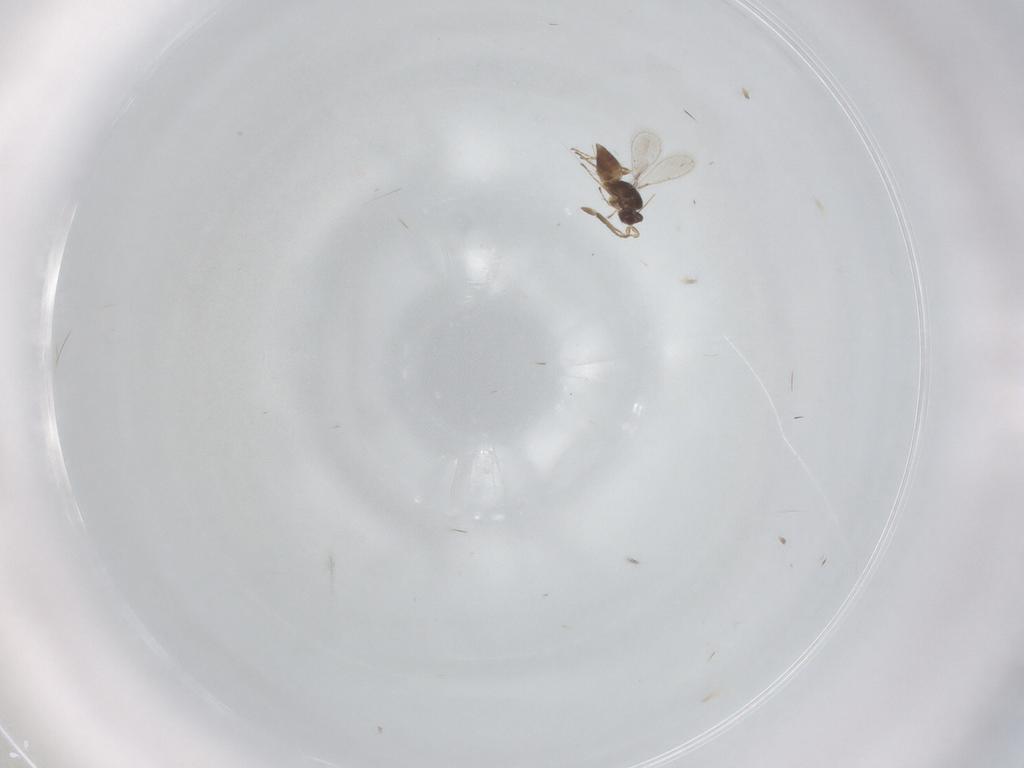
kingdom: Animalia
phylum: Arthropoda
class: Insecta
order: Hymenoptera
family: Mymaridae
